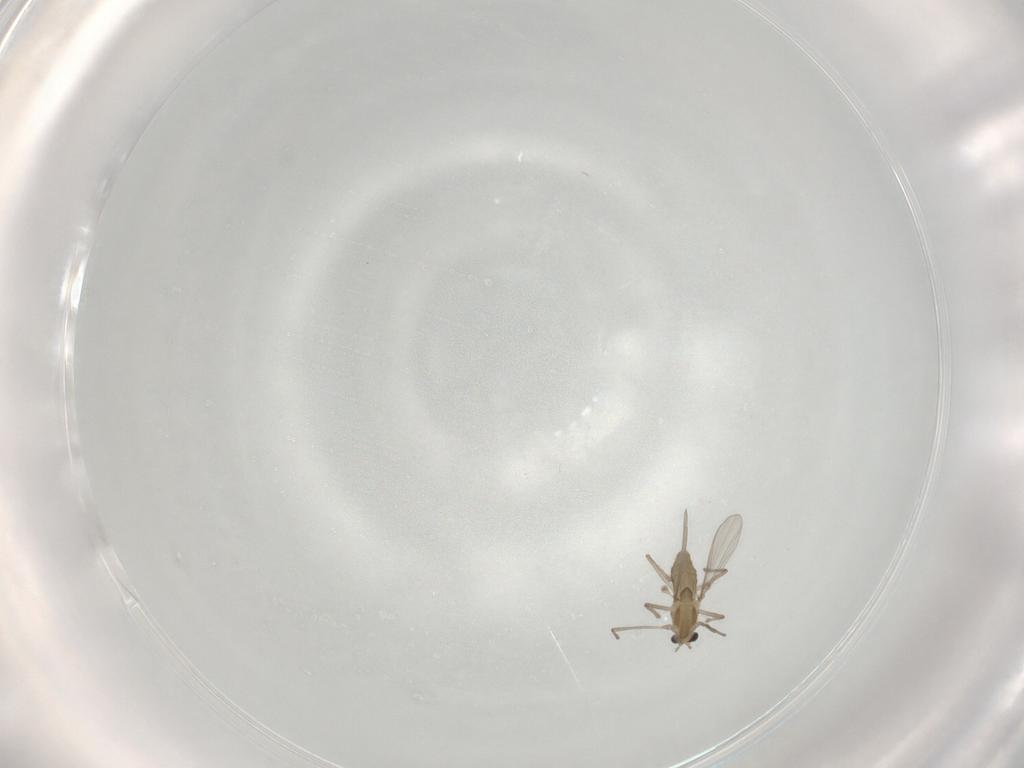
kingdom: Animalia
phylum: Arthropoda
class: Insecta
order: Diptera
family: Chironomidae
